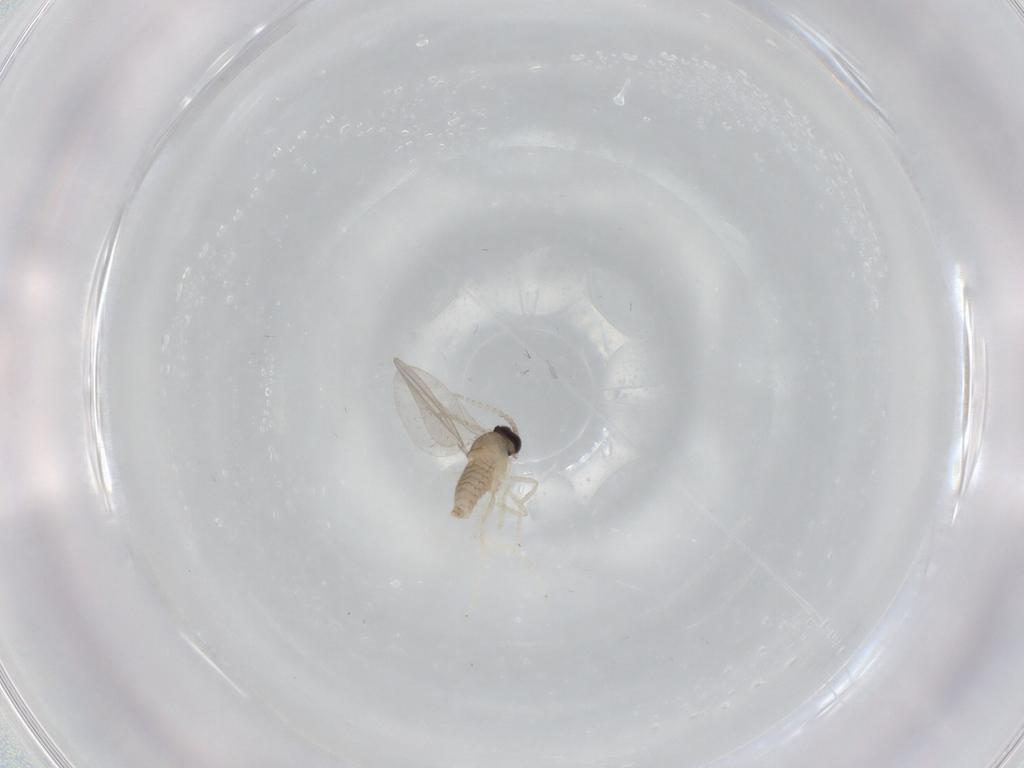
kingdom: Animalia
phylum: Arthropoda
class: Insecta
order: Diptera
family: Cecidomyiidae
